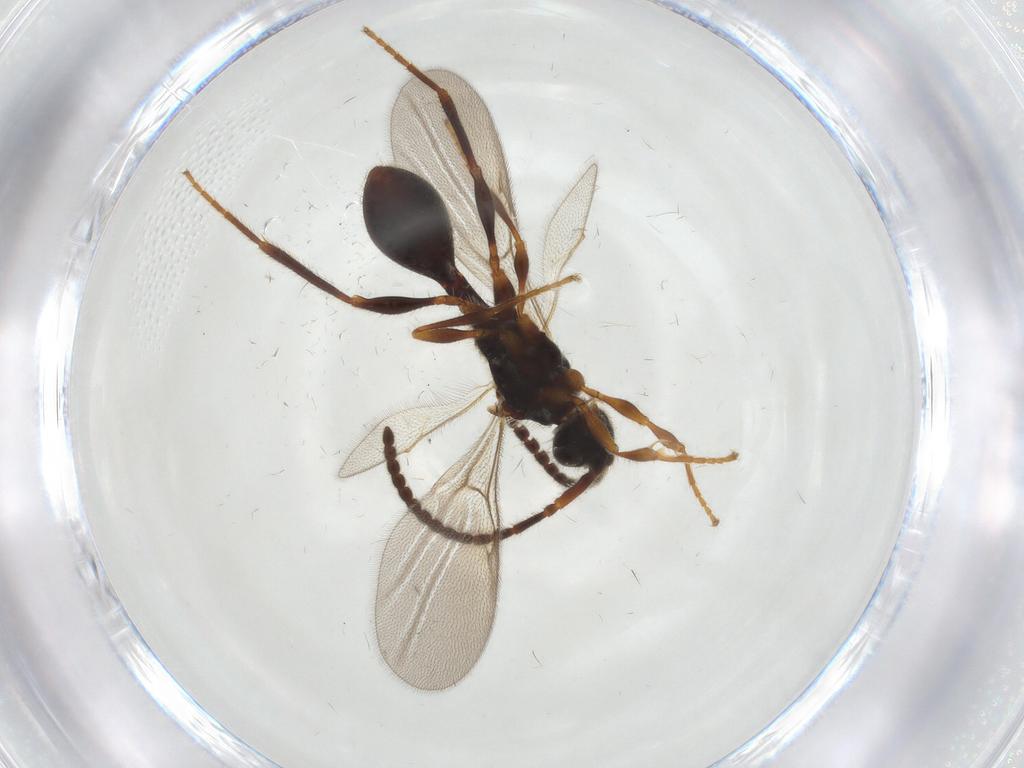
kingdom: Animalia
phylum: Arthropoda
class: Insecta
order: Hymenoptera
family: Diapriidae
